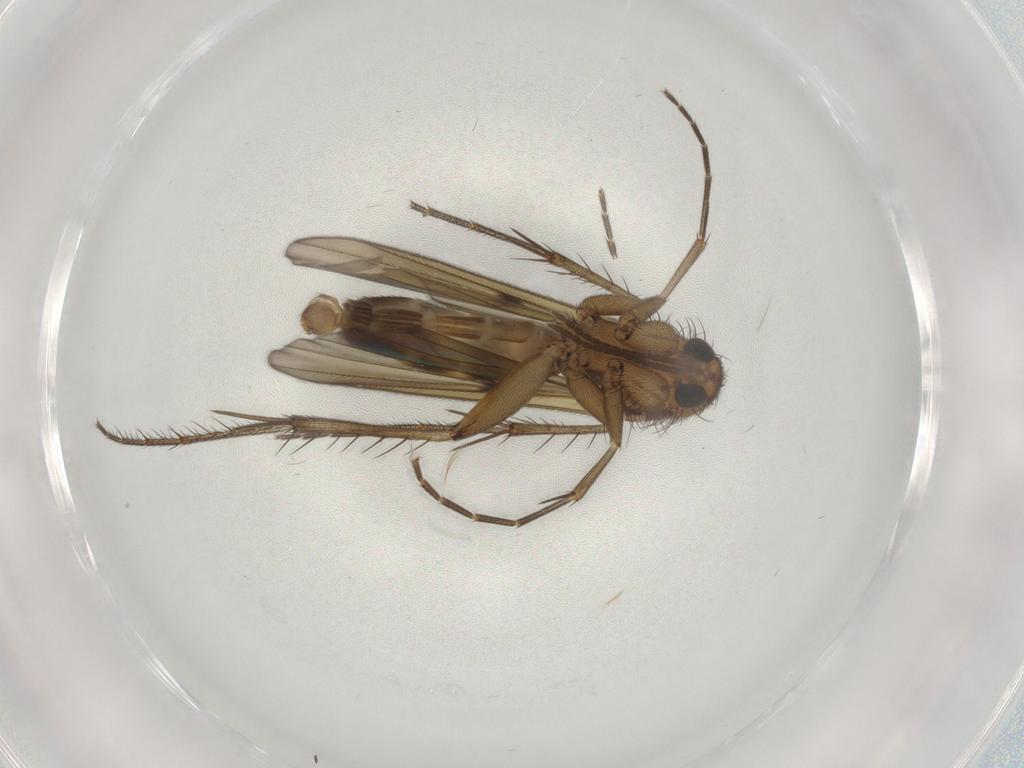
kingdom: Animalia
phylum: Arthropoda
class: Insecta
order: Diptera
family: Mycetophilidae
